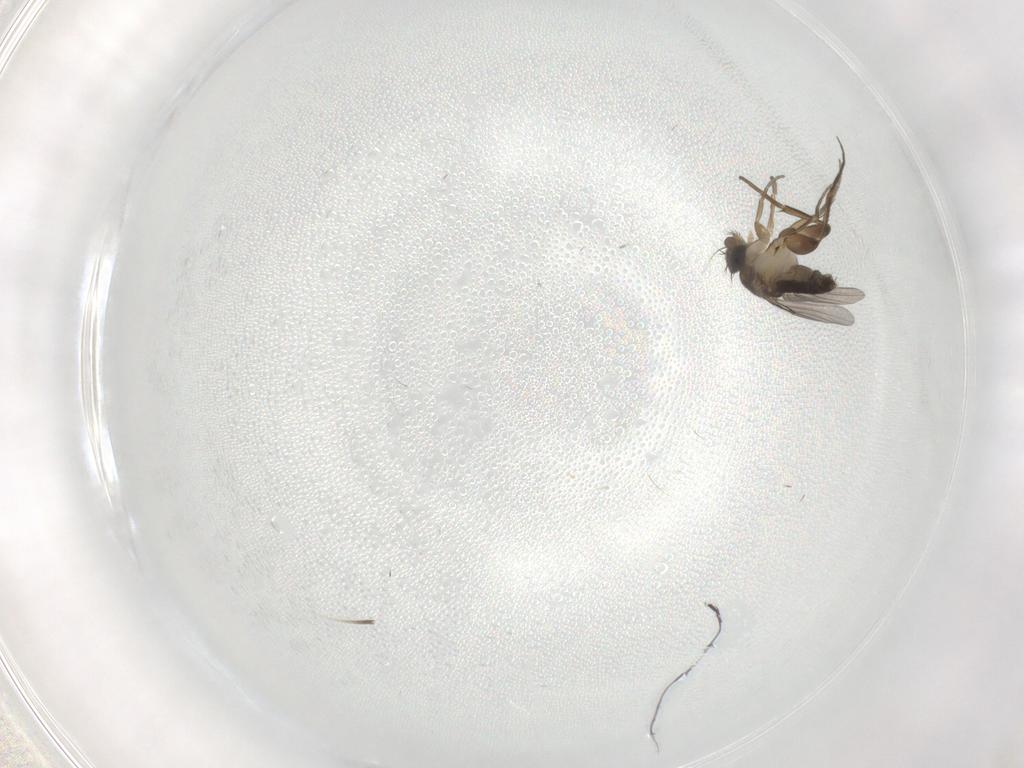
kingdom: Animalia
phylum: Arthropoda
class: Insecta
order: Diptera
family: Phoridae
